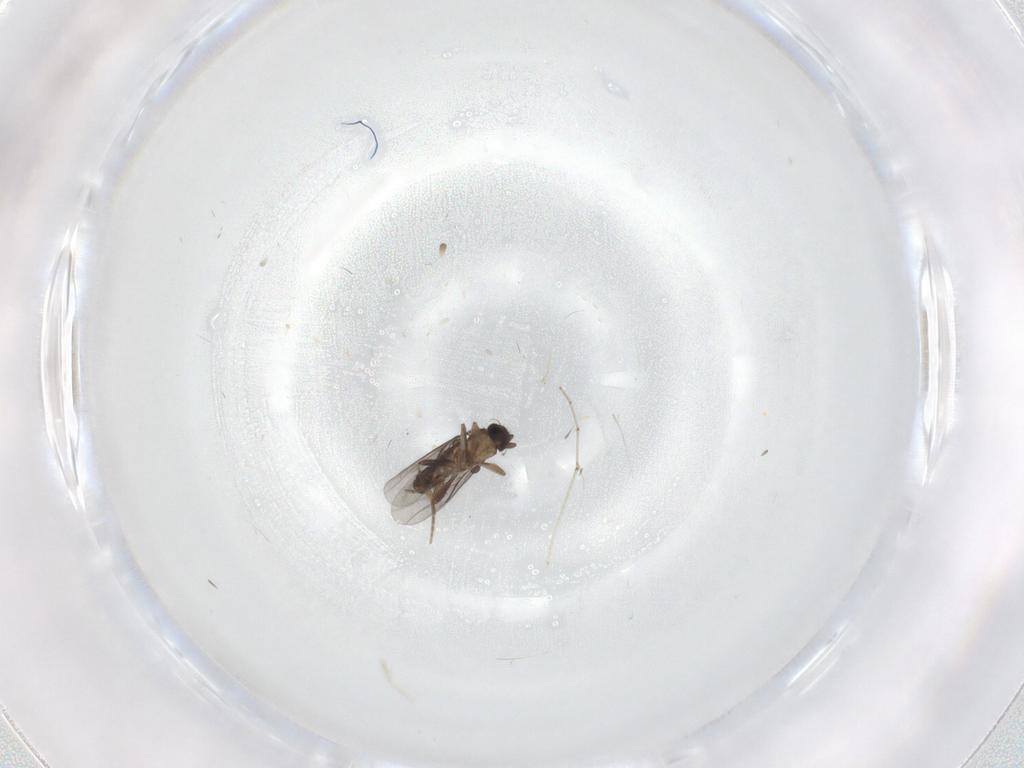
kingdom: Animalia
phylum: Arthropoda
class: Insecta
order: Diptera
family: Cecidomyiidae
